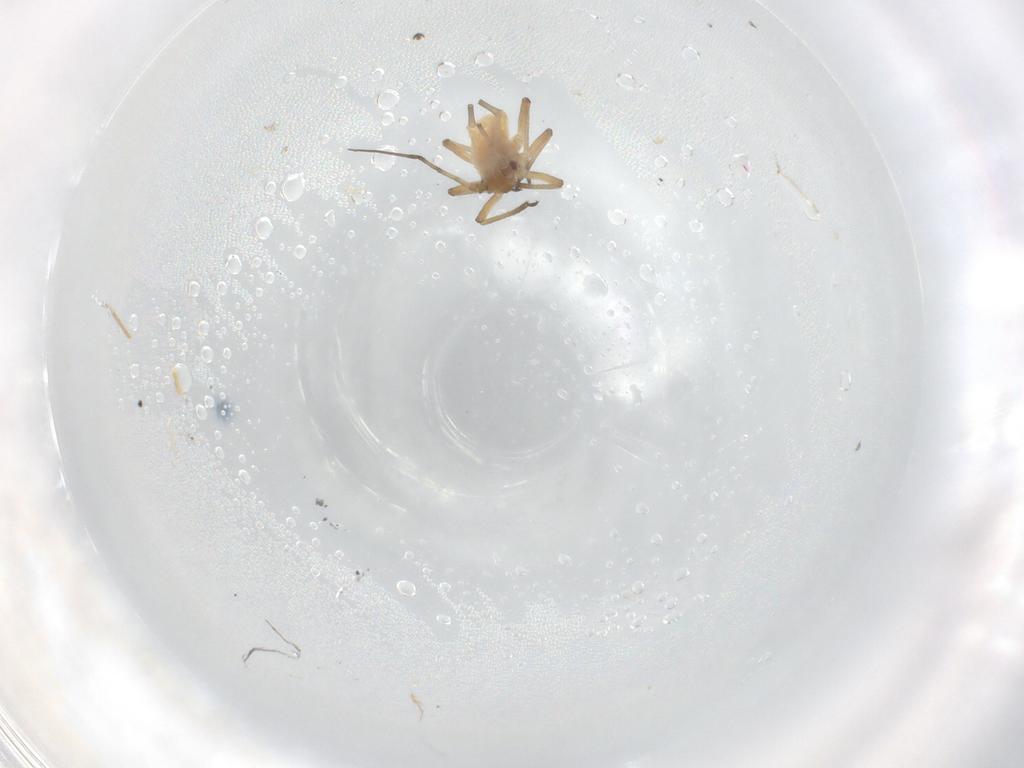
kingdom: Animalia
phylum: Arthropoda
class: Insecta
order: Hemiptera
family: Aphididae
